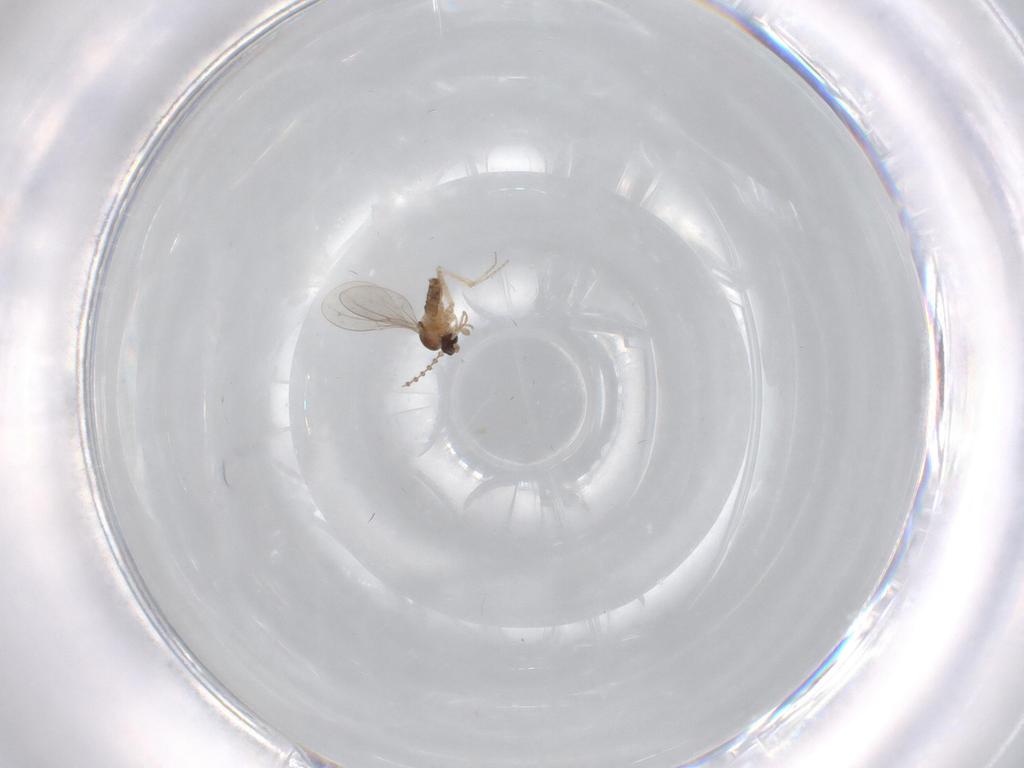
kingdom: Animalia
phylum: Arthropoda
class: Insecta
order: Diptera
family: Cecidomyiidae
